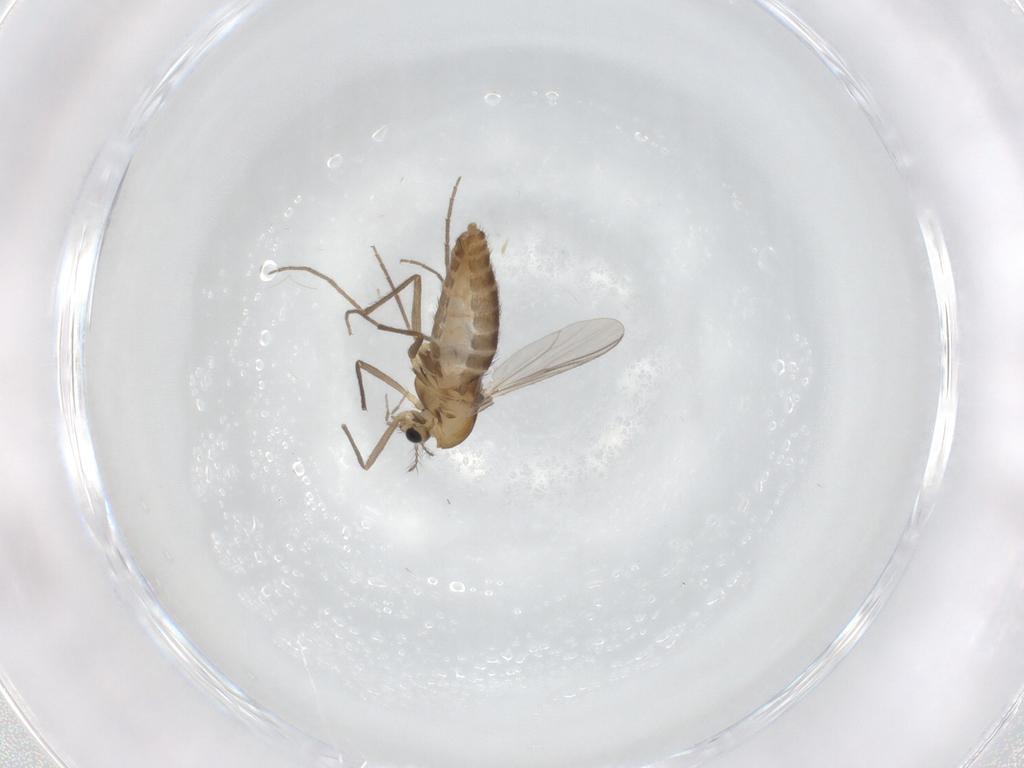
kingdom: Animalia
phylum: Arthropoda
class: Insecta
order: Diptera
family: Chironomidae
